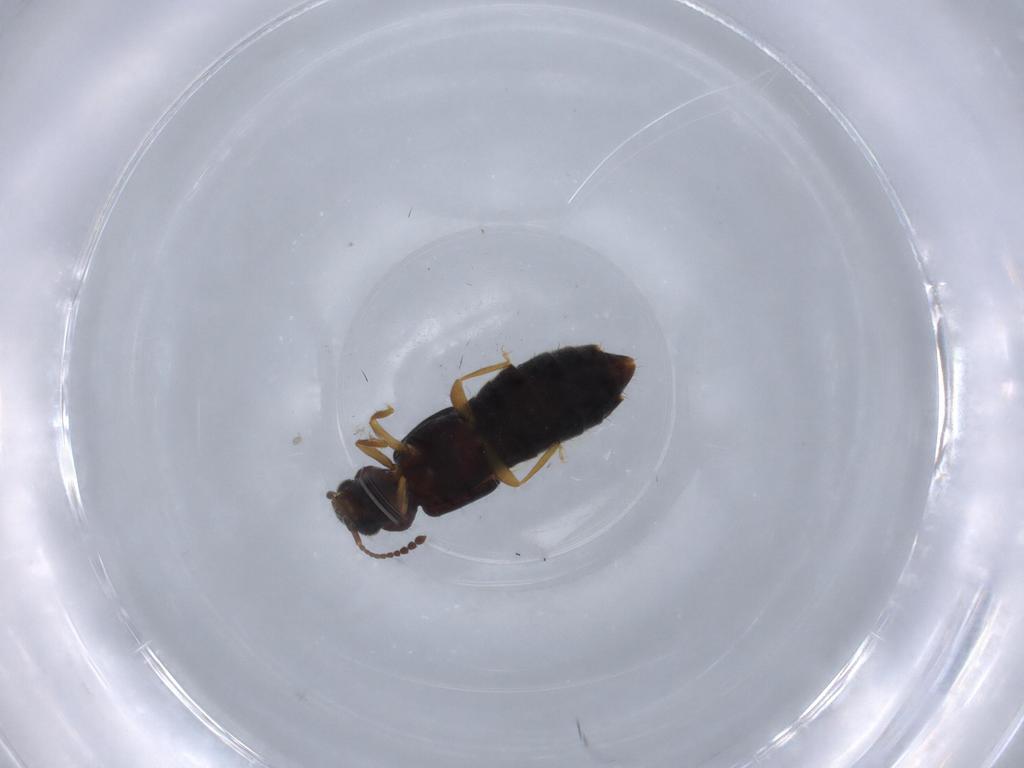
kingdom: Animalia
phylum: Arthropoda
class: Insecta
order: Coleoptera
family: Staphylinidae
